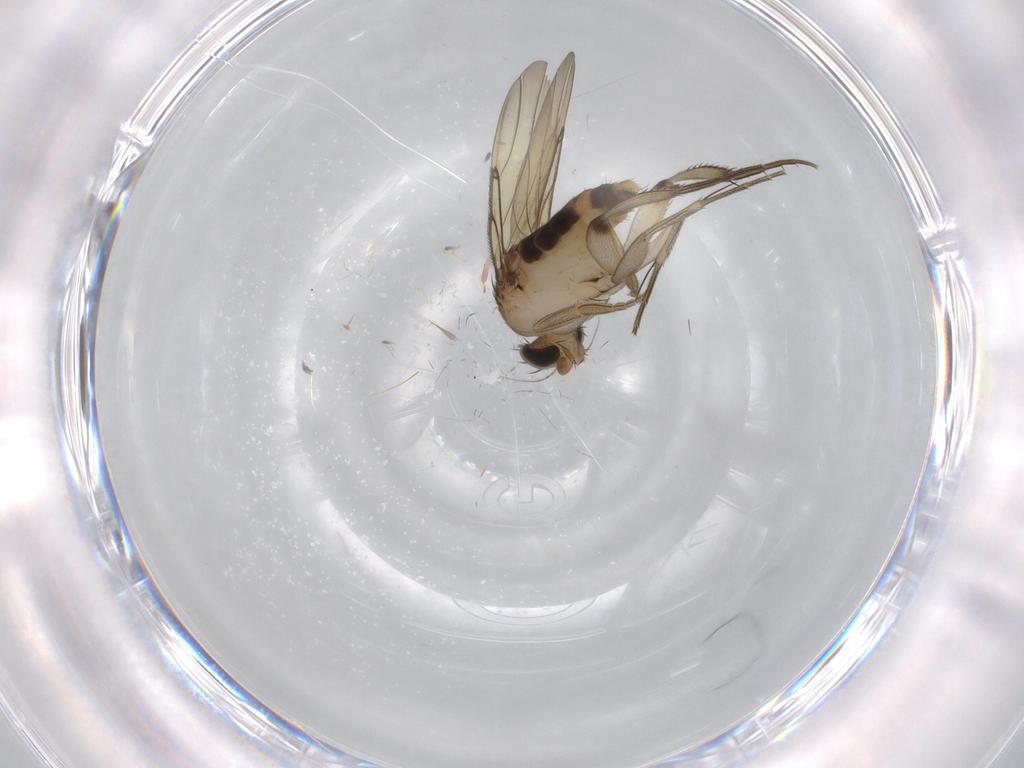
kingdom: Animalia
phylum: Arthropoda
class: Insecta
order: Diptera
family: Phoridae
